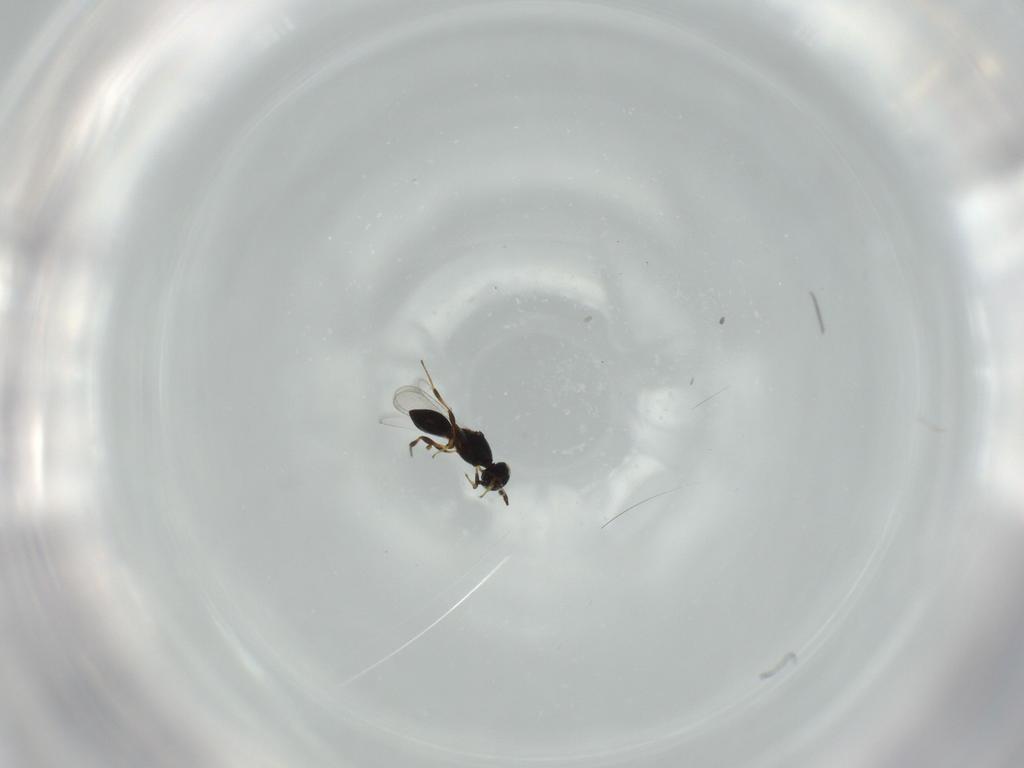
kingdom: Animalia
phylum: Arthropoda
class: Insecta
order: Hymenoptera
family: Platygastridae
